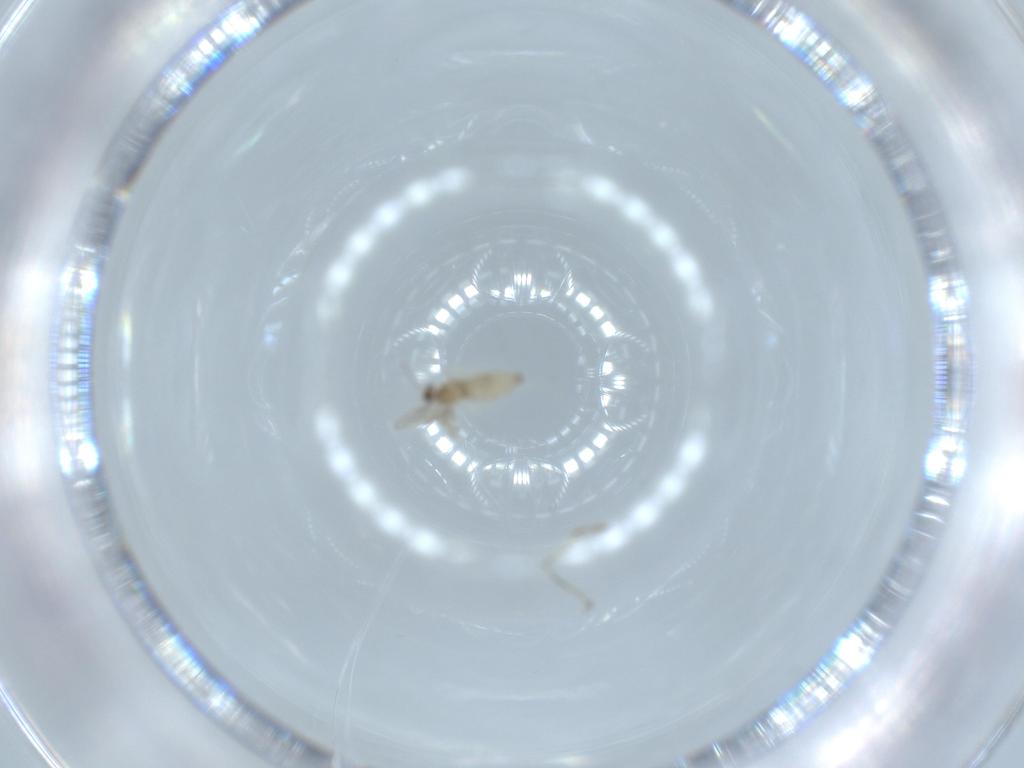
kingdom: Animalia
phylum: Arthropoda
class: Insecta
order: Diptera
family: Cecidomyiidae
